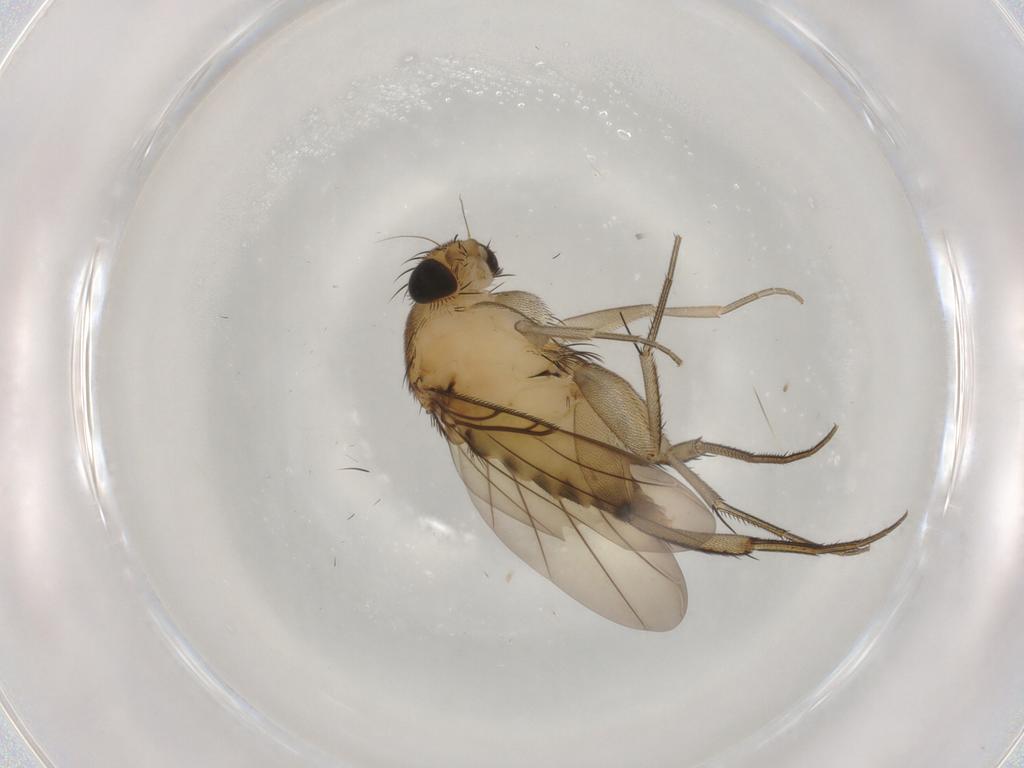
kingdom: Animalia
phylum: Arthropoda
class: Insecta
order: Diptera
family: Phoridae
